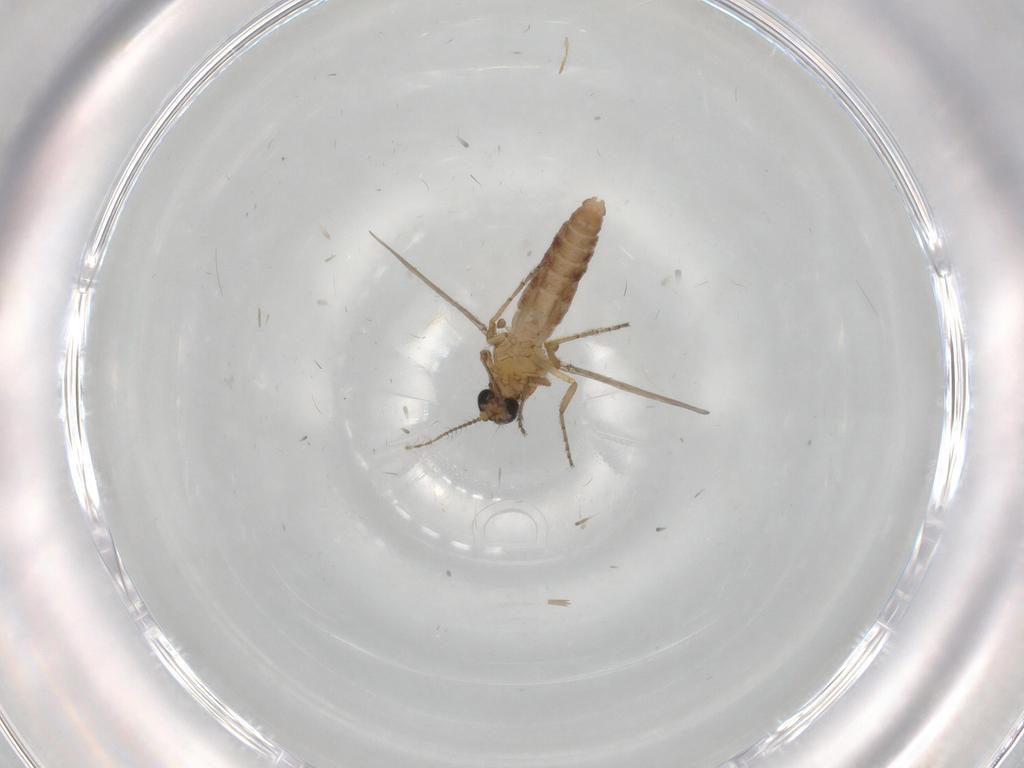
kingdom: Animalia
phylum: Arthropoda
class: Insecta
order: Diptera
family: Ceratopogonidae
